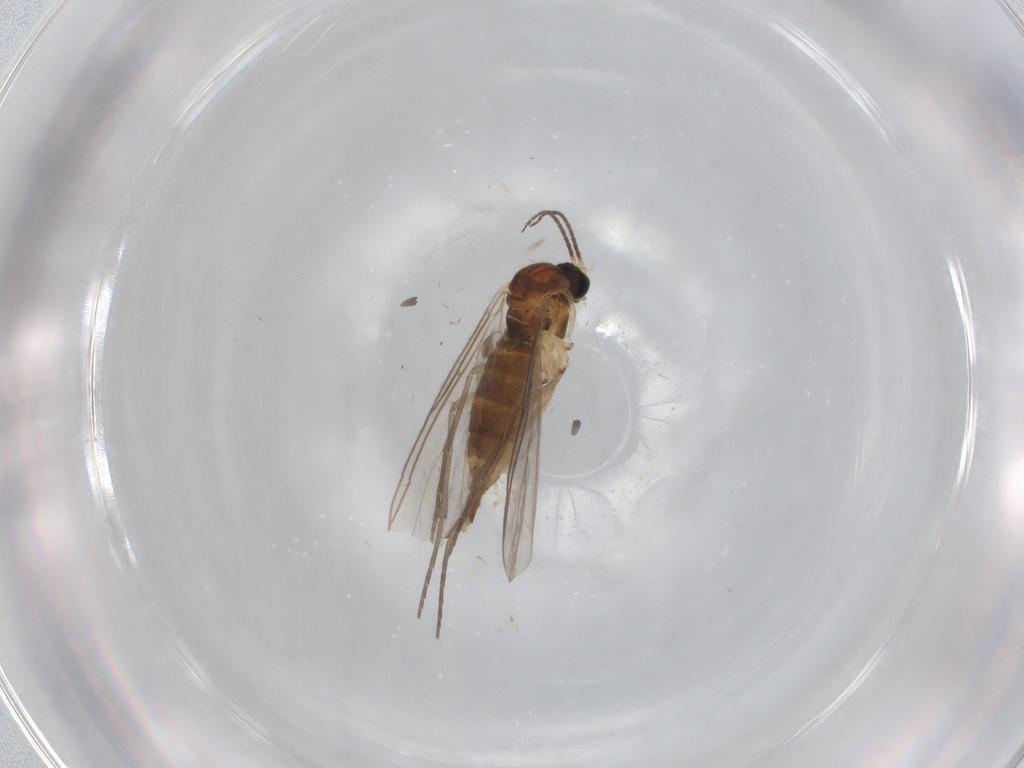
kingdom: Animalia
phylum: Arthropoda
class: Insecta
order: Diptera
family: Sciaridae
